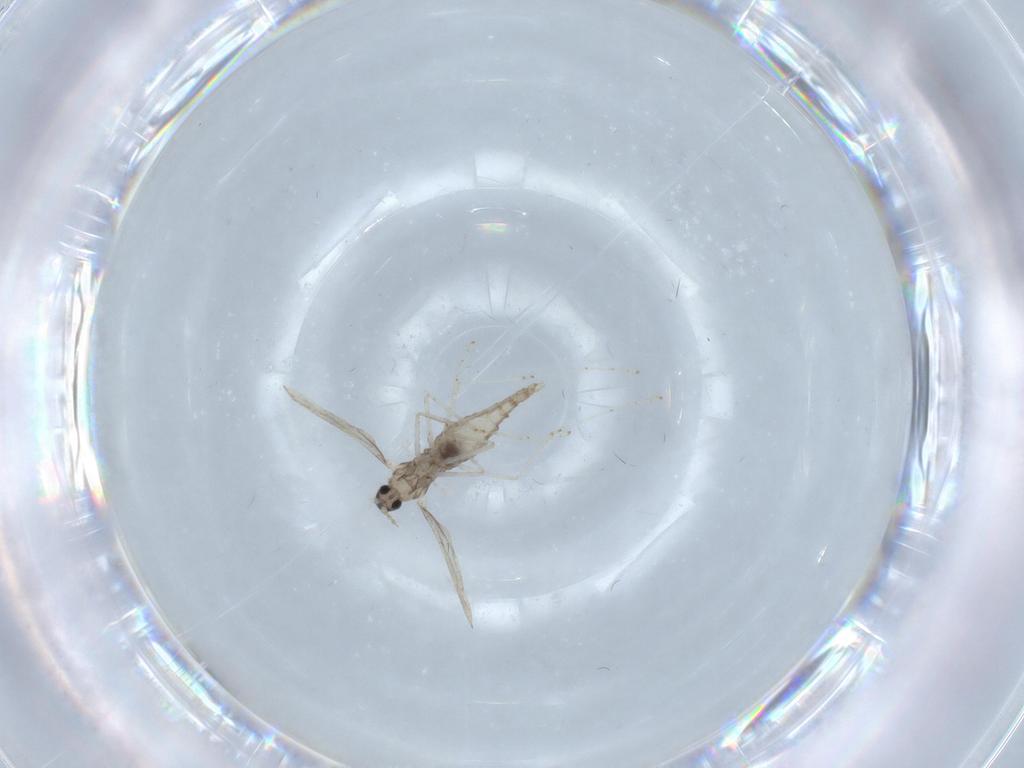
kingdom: Animalia
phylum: Arthropoda
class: Insecta
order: Diptera
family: Cecidomyiidae
